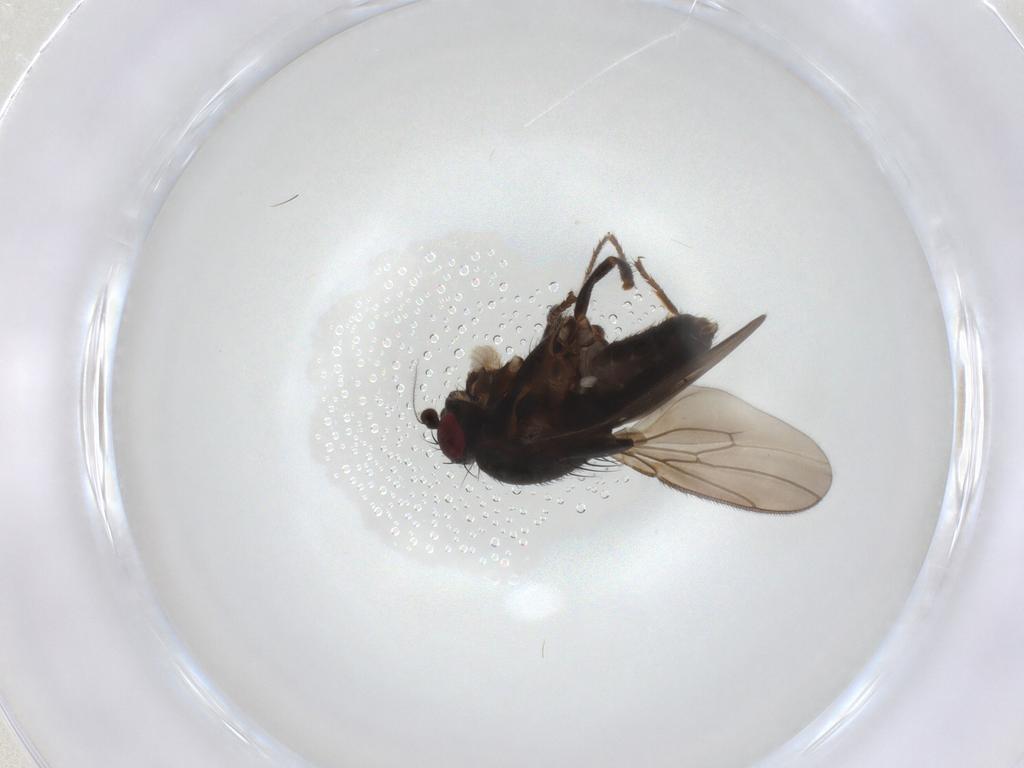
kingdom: Animalia
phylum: Arthropoda
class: Insecta
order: Diptera
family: Sphaeroceridae
